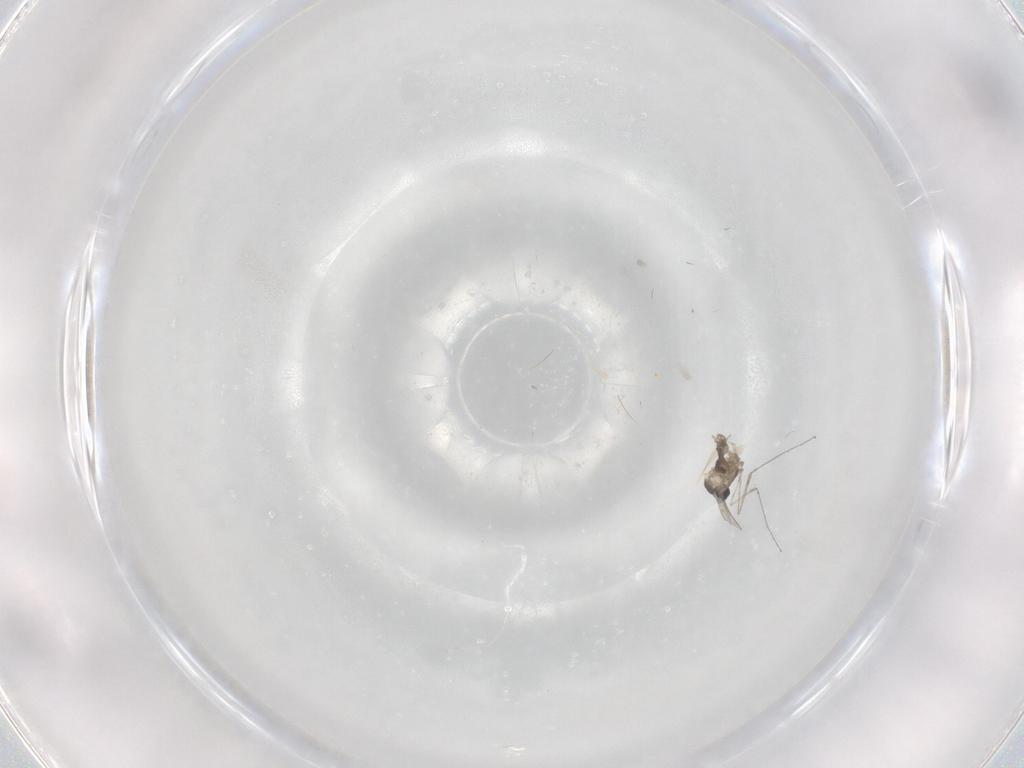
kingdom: Animalia
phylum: Arthropoda
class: Insecta
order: Diptera
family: Cecidomyiidae
